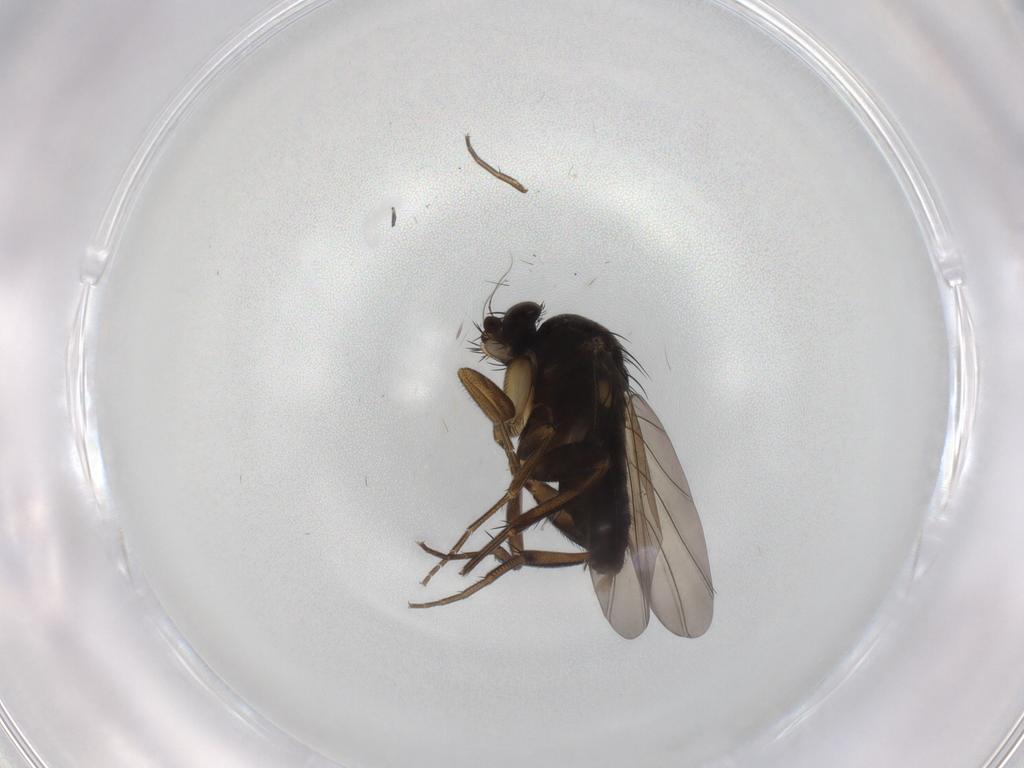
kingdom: Animalia
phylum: Arthropoda
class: Insecta
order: Diptera
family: Phoridae
